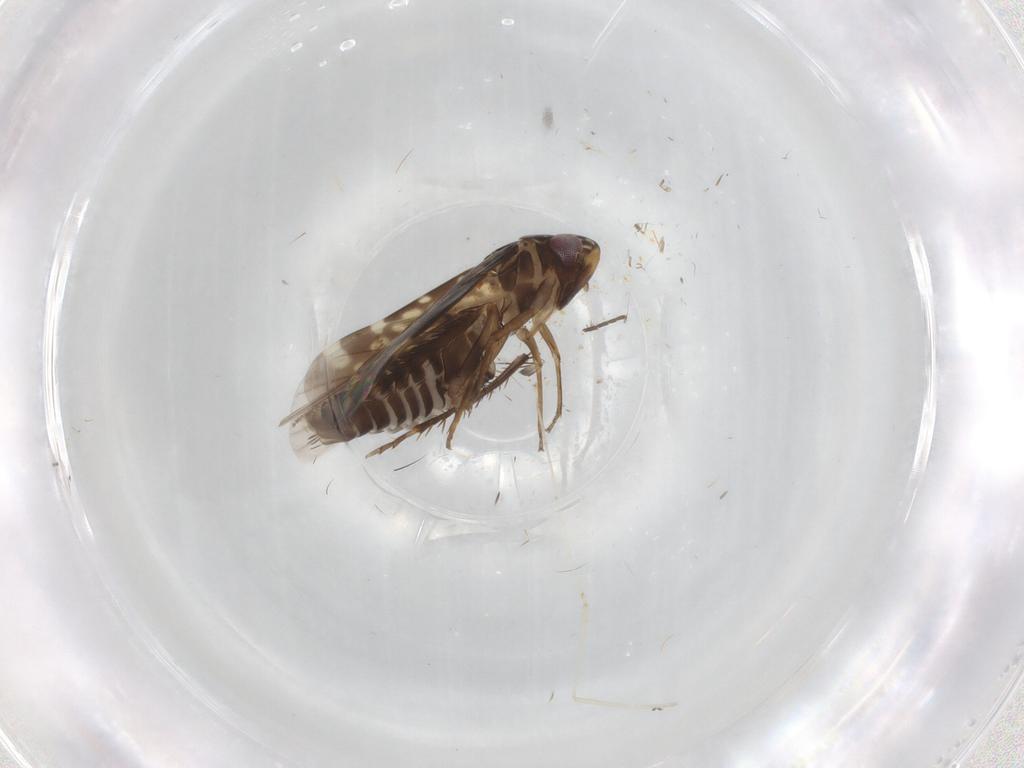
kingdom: Animalia
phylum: Arthropoda
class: Insecta
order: Hemiptera
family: Cicadellidae
